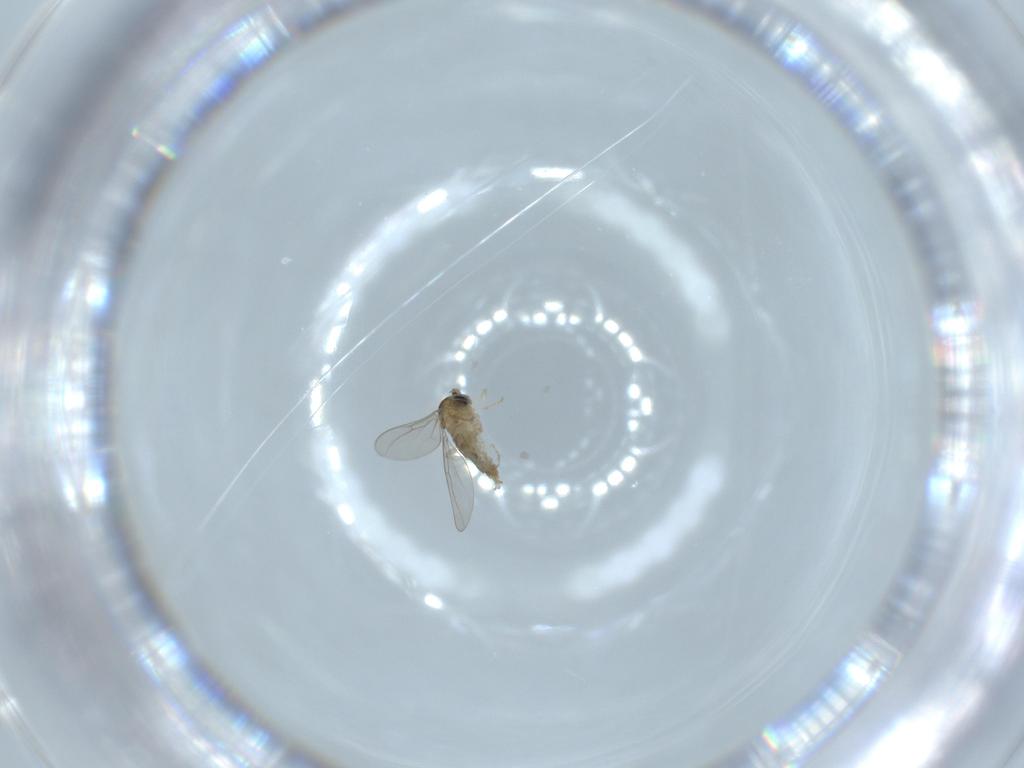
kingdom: Animalia
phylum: Arthropoda
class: Insecta
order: Diptera
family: Cecidomyiidae
